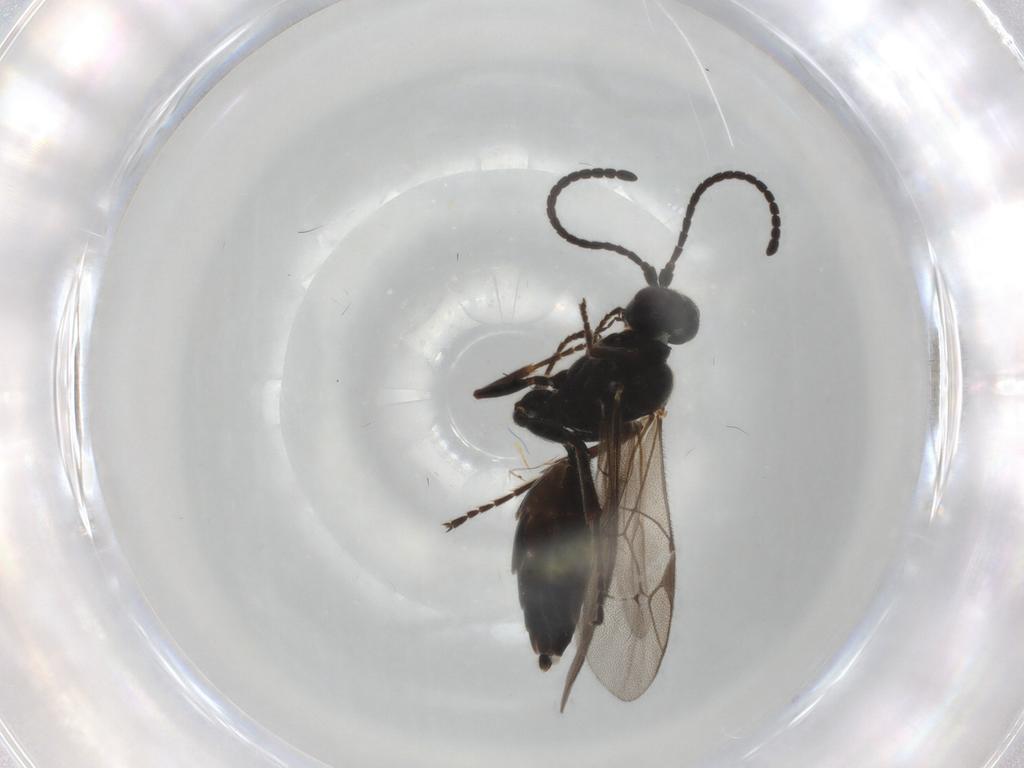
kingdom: Animalia
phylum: Arthropoda
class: Insecta
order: Hymenoptera
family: Ichneumonidae
